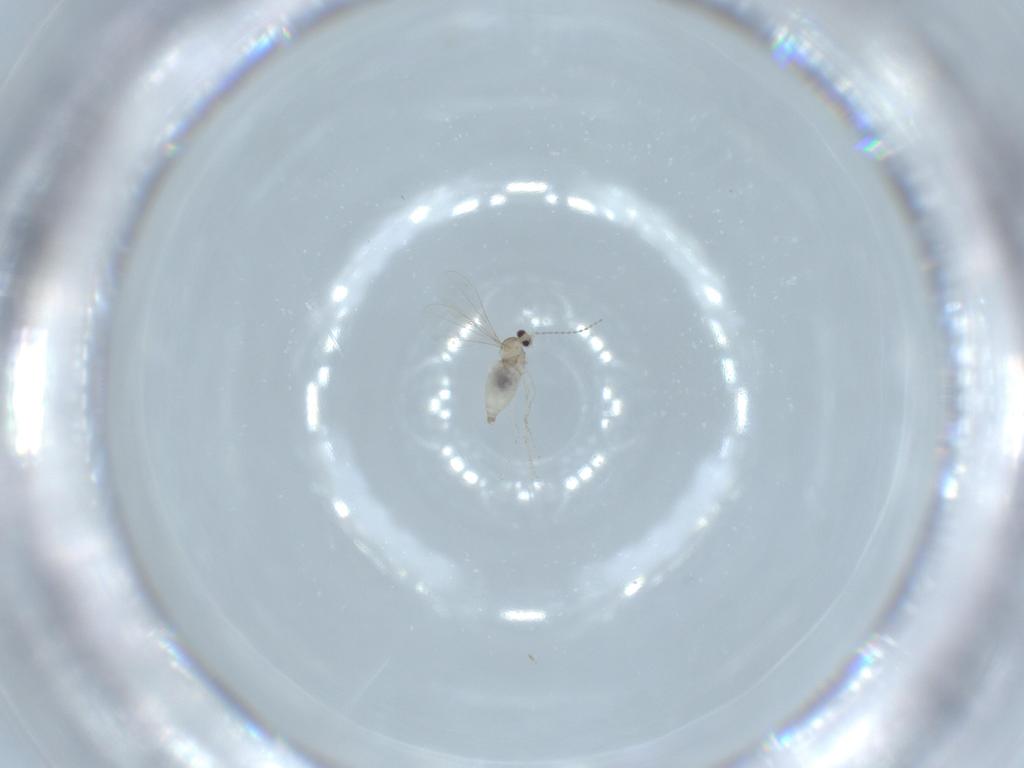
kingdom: Animalia
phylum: Arthropoda
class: Insecta
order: Diptera
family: Cecidomyiidae
